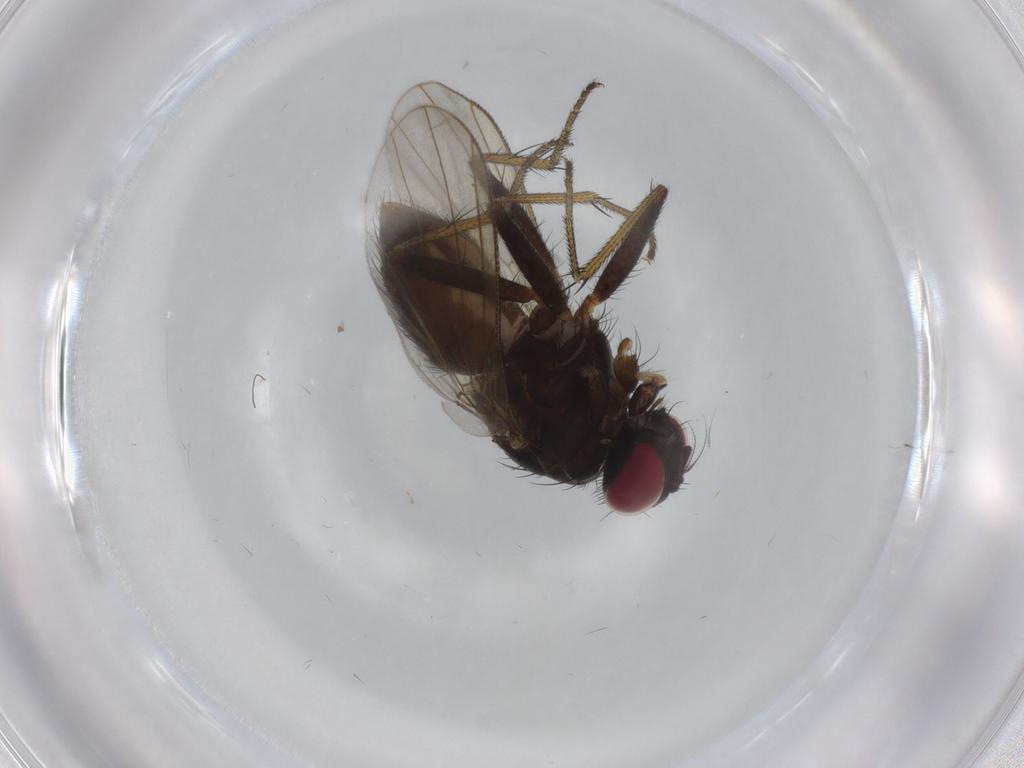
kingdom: Animalia
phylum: Arthropoda
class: Insecta
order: Diptera
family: Muscidae
